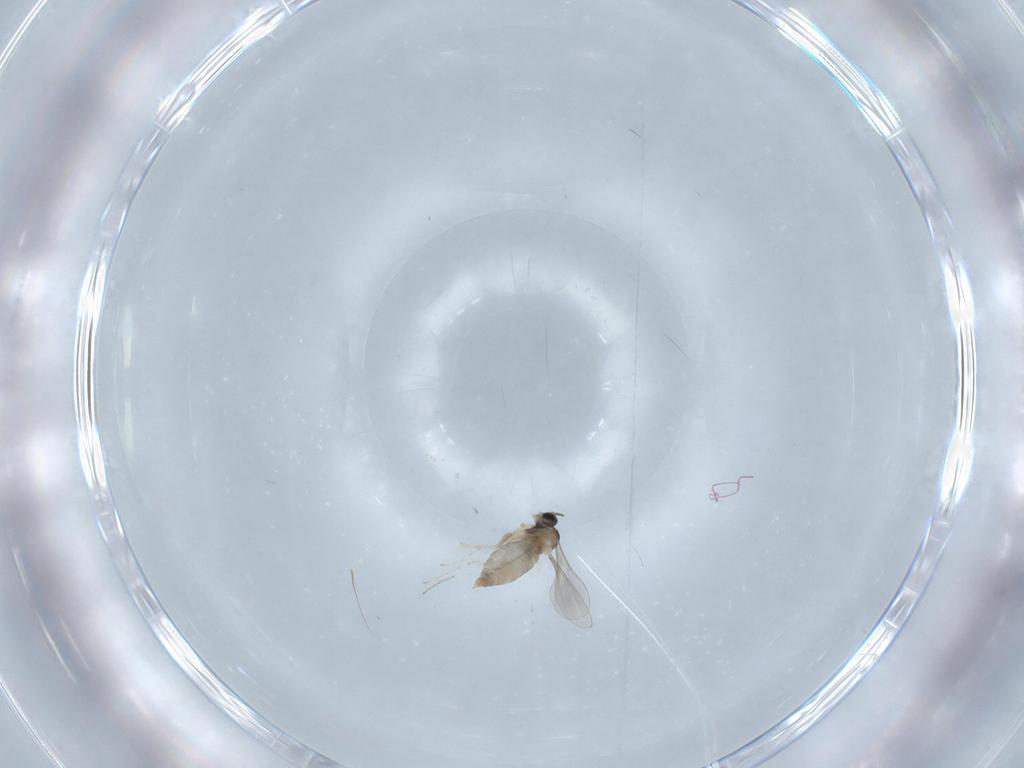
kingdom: Animalia
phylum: Arthropoda
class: Insecta
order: Diptera
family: Chironomidae
